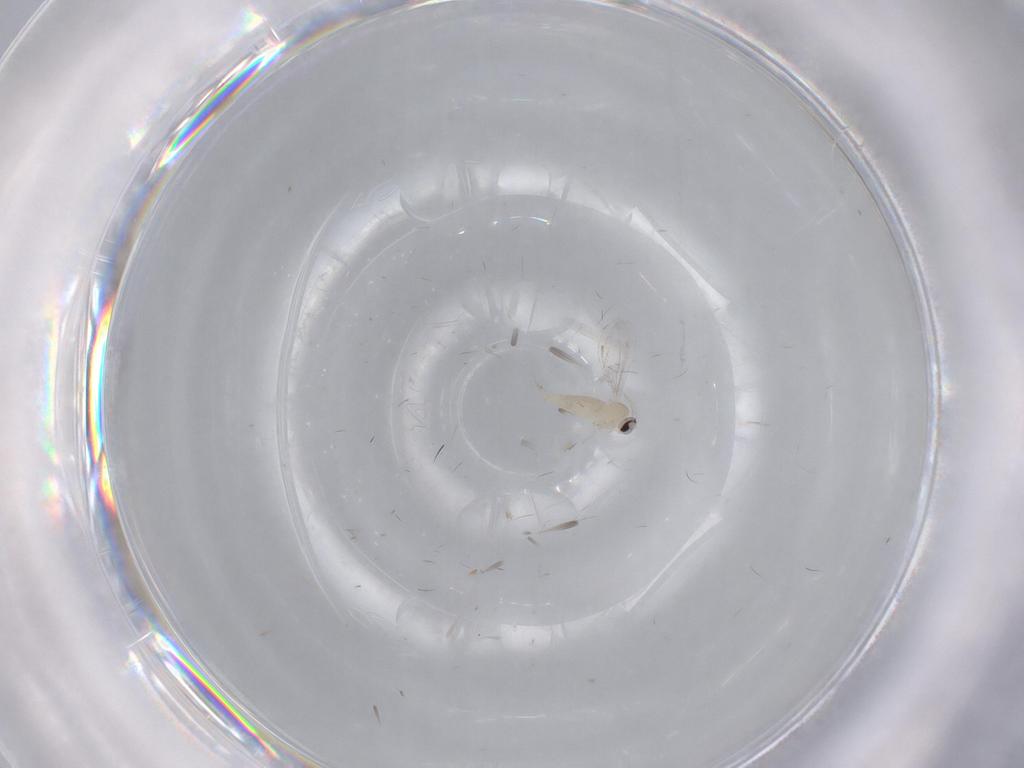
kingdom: Animalia
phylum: Arthropoda
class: Insecta
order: Diptera
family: Cecidomyiidae
